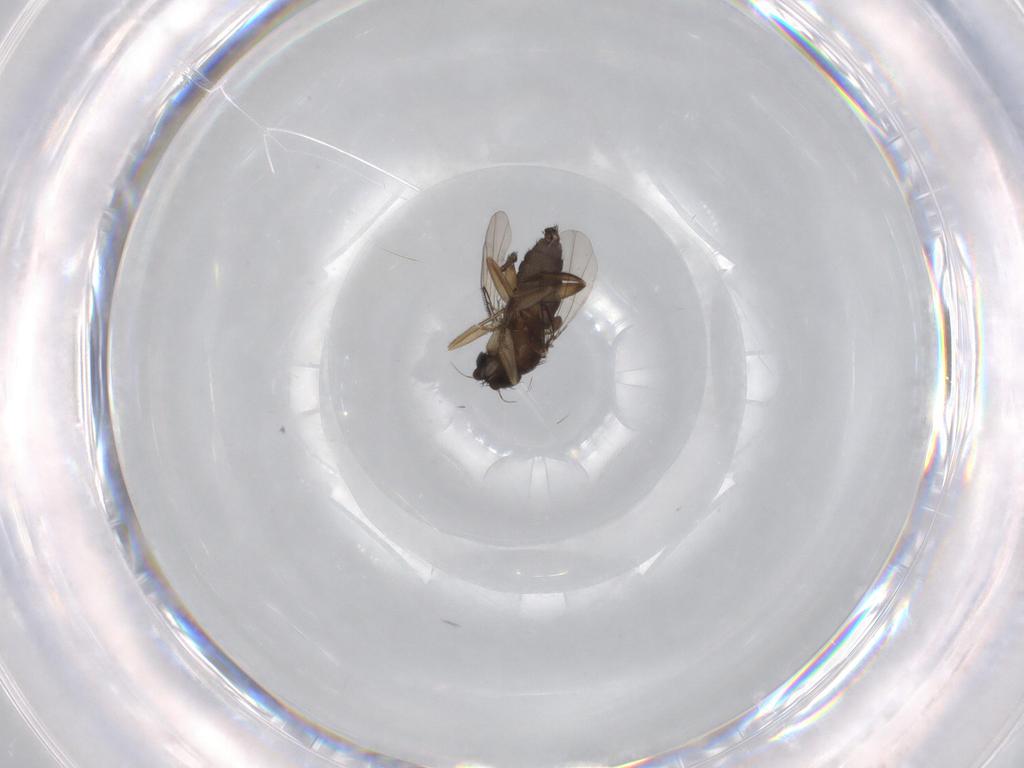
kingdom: Animalia
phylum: Arthropoda
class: Insecta
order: Diptera
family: Phoridae
